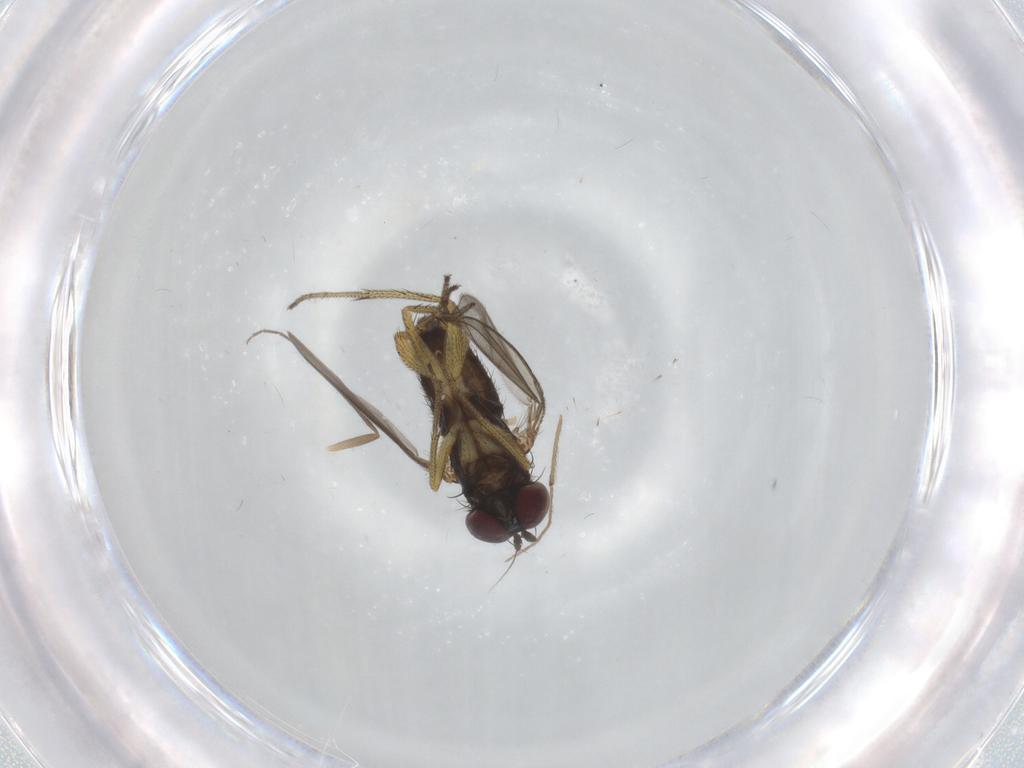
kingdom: Animalia
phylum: Arthropoda
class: Insecta
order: Diptera
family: Dolichopodidae
